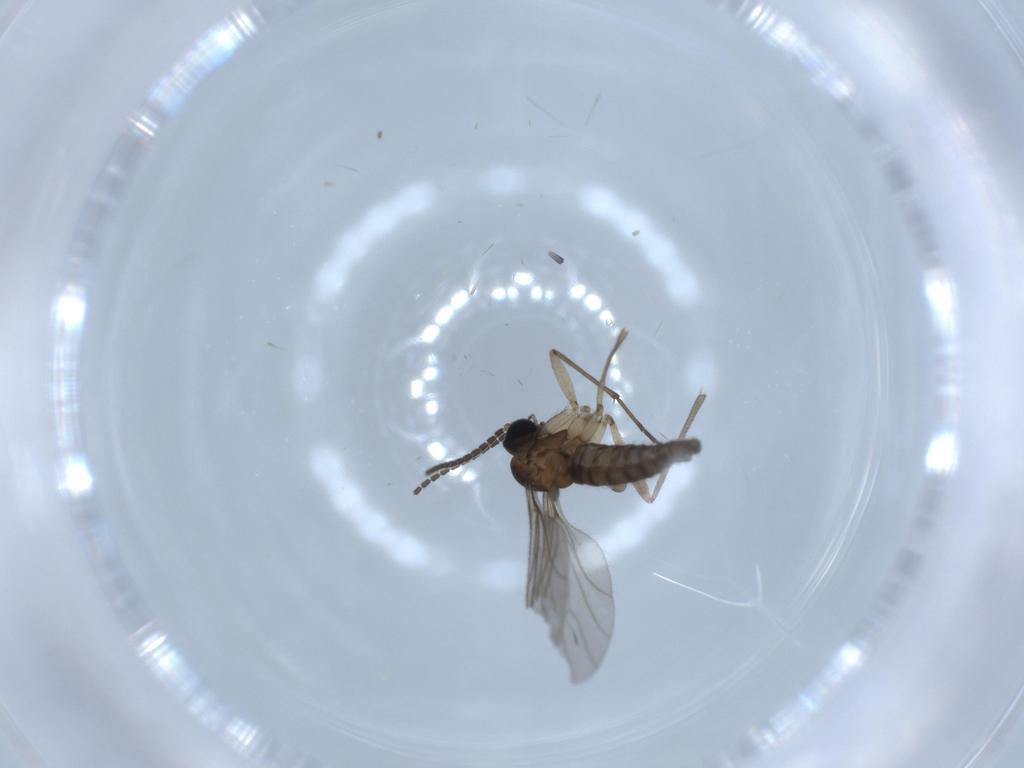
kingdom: Animalia
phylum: Arthropoda
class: Insecta
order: Diptera
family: Sciaridae
